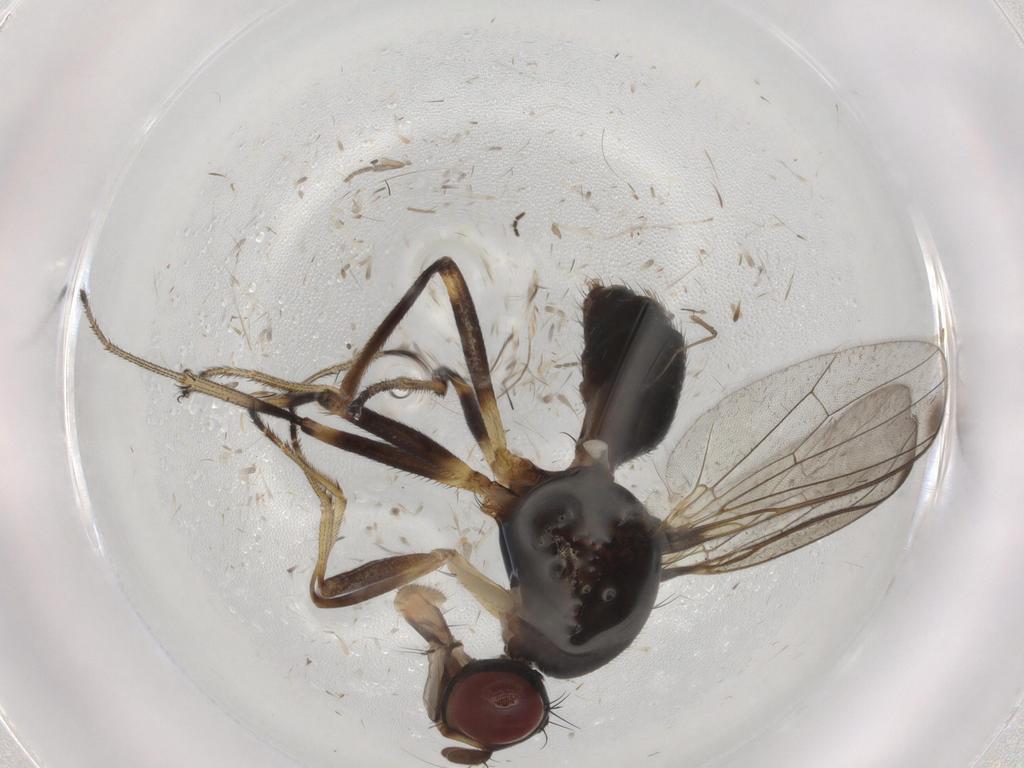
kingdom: Animalia
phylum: Arthropoda
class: Insecta
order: Diptera
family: Sepsidae
